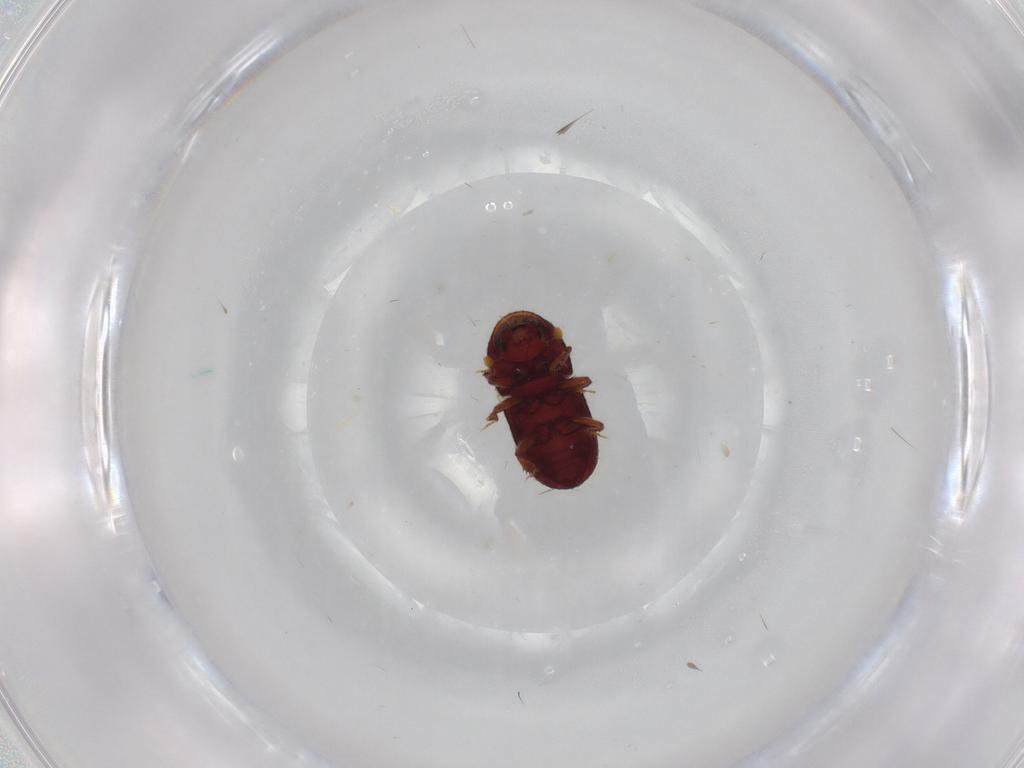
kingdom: Animalia
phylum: Arthropoda
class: Insecta
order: Coleoptera
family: Curculionidae
